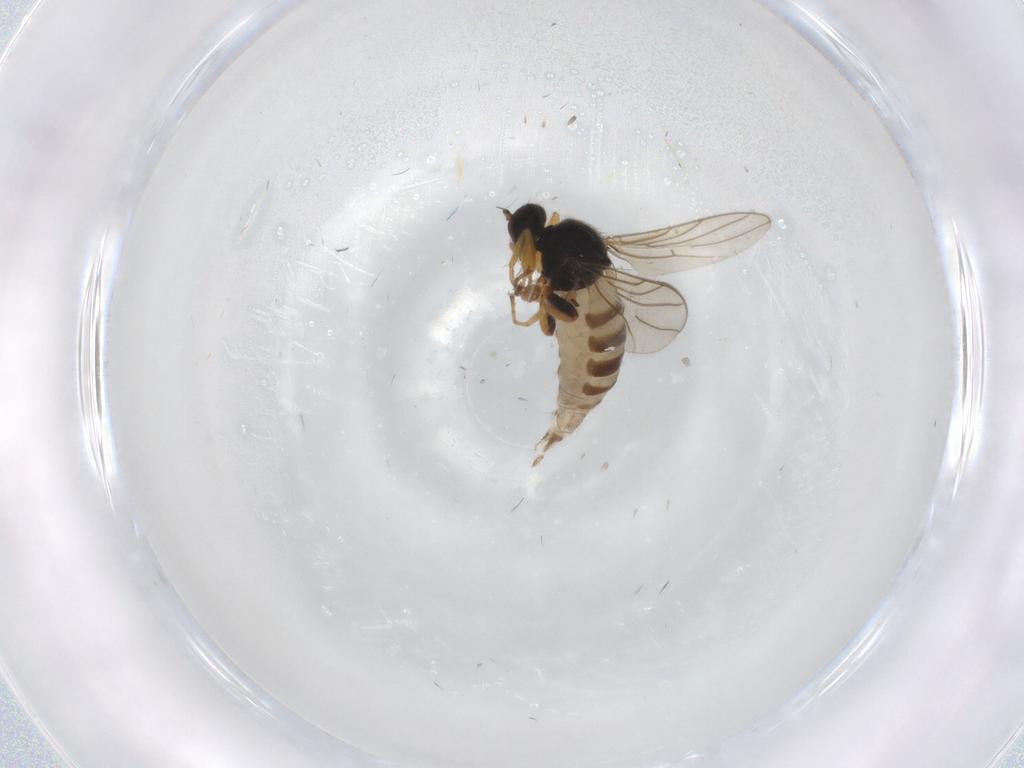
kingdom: Animalia
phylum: Arthropoda
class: Insecta
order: Diptera
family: Hybotidae
